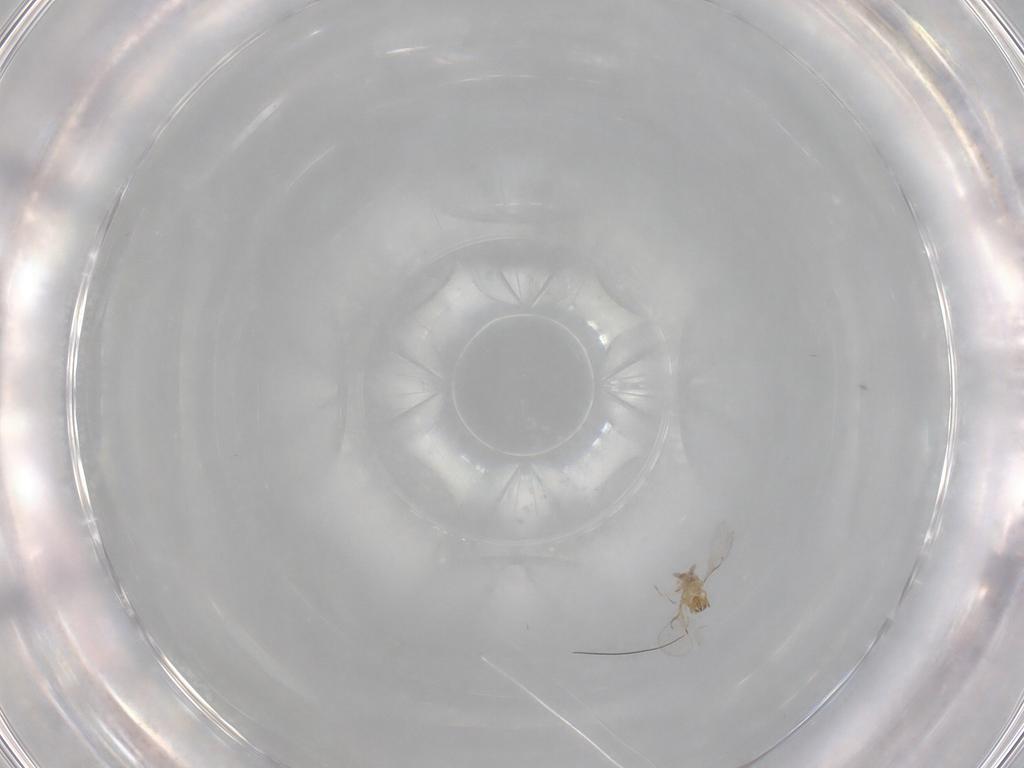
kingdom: Animalia
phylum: Arthropoda
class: Insecta
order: Hymenoptera
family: Trichogrammatidae
